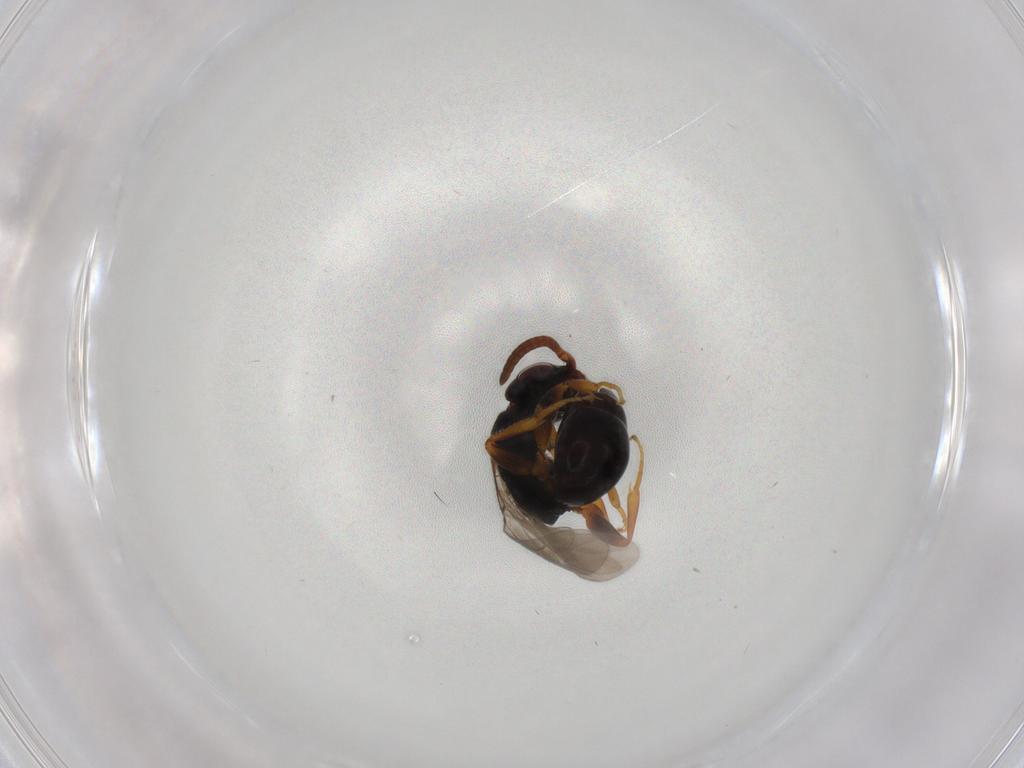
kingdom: Animalia
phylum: Arthropoda
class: Insecta
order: Hymenoptera
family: Bethylidae
